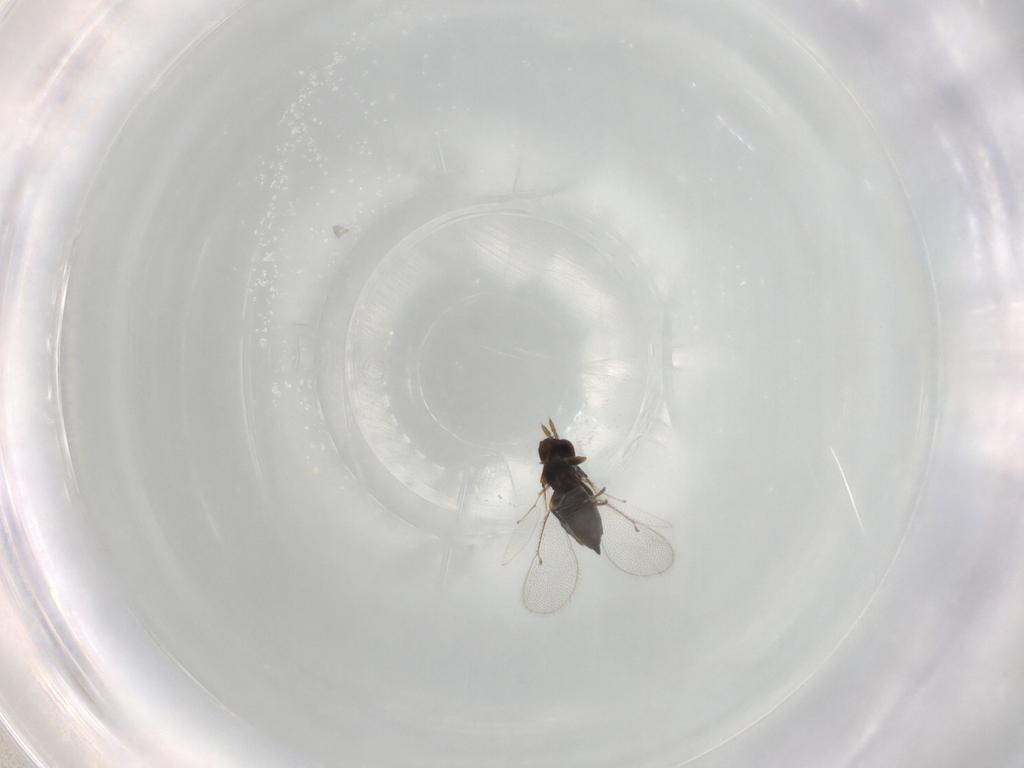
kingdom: Animalia
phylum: Arthropoda
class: Insecta
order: Hymenoptera
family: Eulophidae
